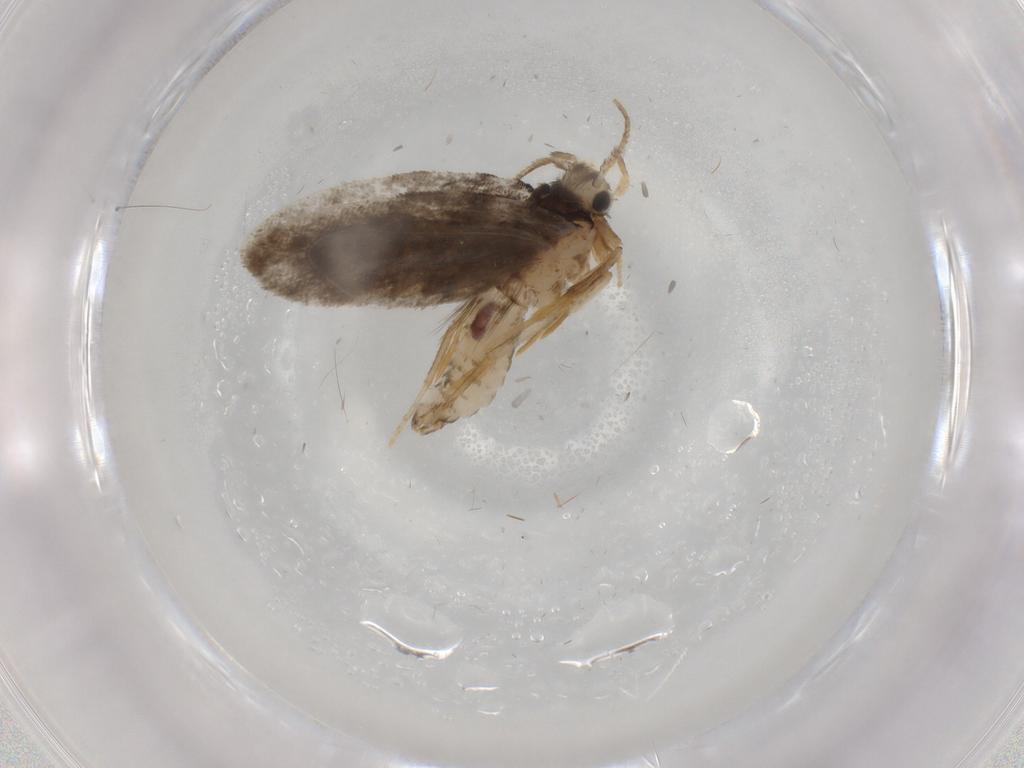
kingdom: Animalia
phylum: Arthropoda
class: Insecta
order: Lepidoptera
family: Psychidae
